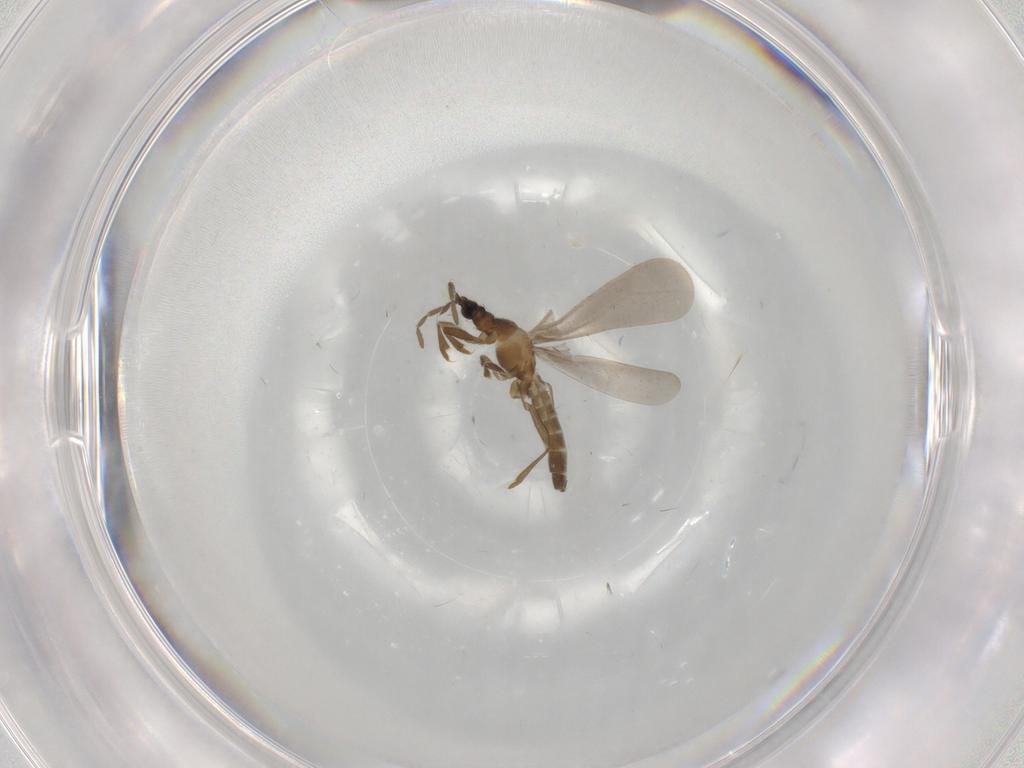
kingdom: Animalia
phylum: Arthropoda
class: Insecta
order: Hemiptera
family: Enicocephalidae
